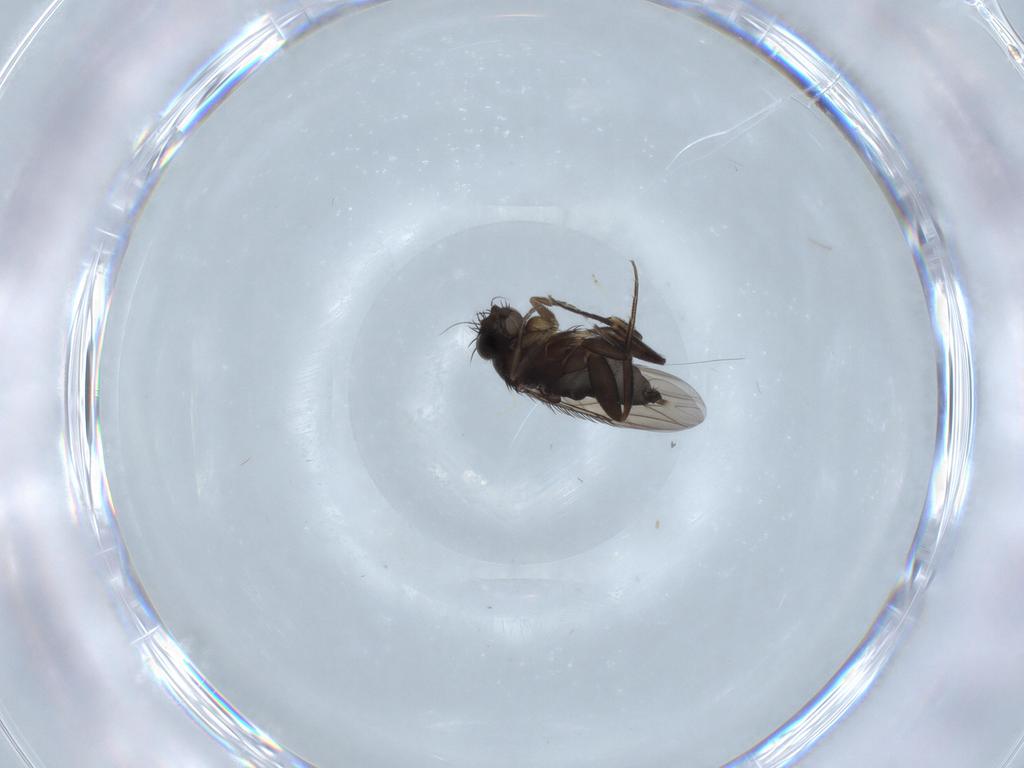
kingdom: Animalia
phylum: Arthropoda
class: Insecta
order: Diptera
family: Phoridae
